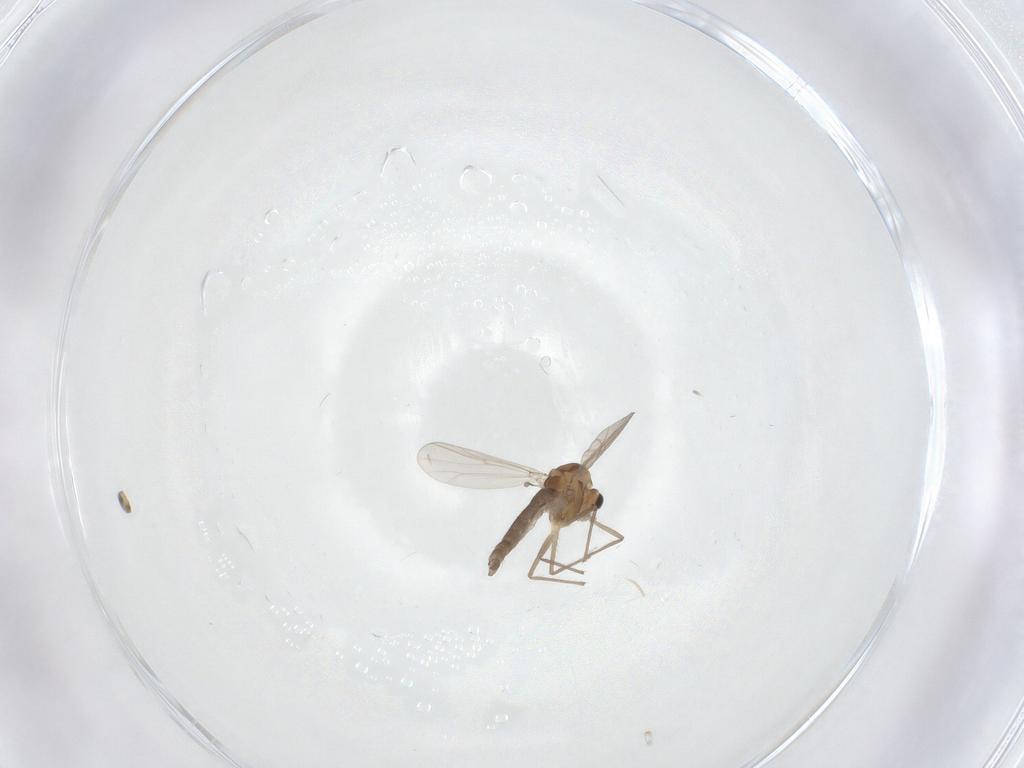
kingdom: Animalia
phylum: Arthropoda
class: Insecta
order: Diptera
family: Chironomidae
